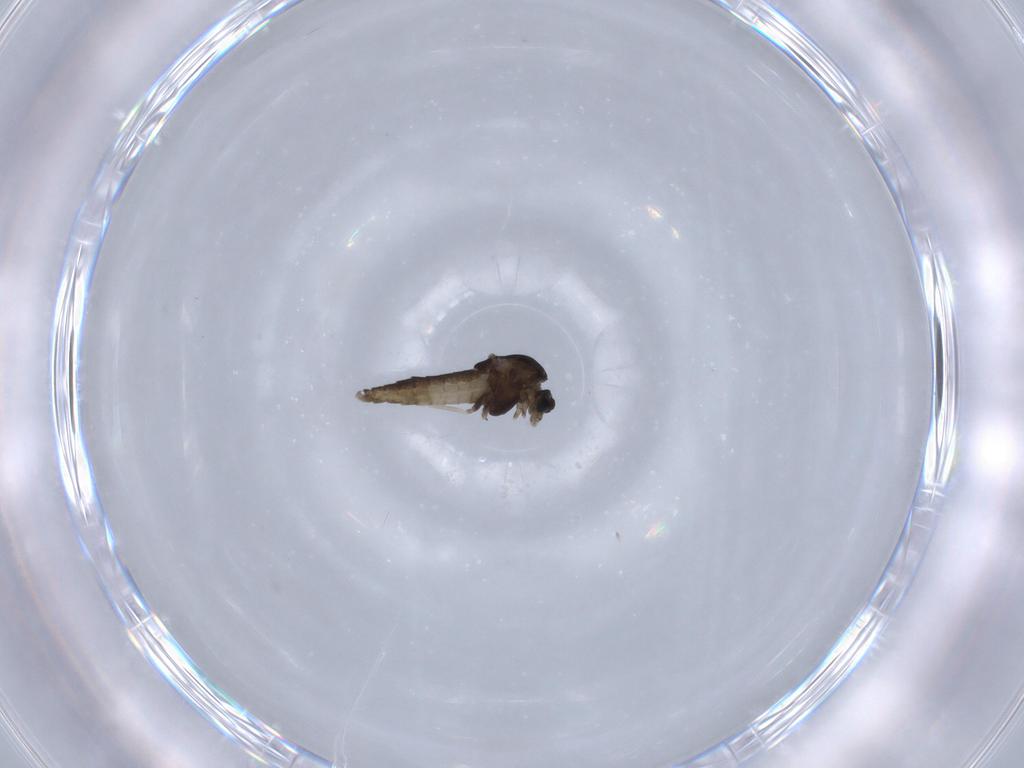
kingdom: Animalia
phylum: Arthropoda
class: Insecta
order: Diptera
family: Chironomidae
